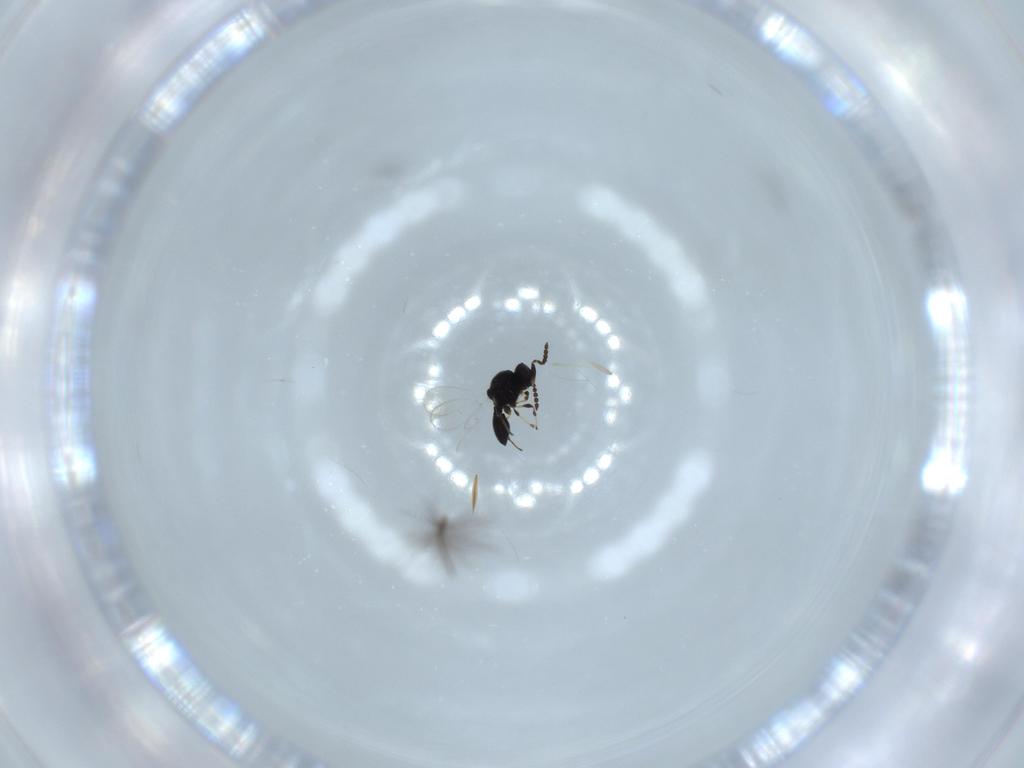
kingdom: Animalia
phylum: Arthropoda
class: Insecta
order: Hymenoptera
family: Platygastridae
